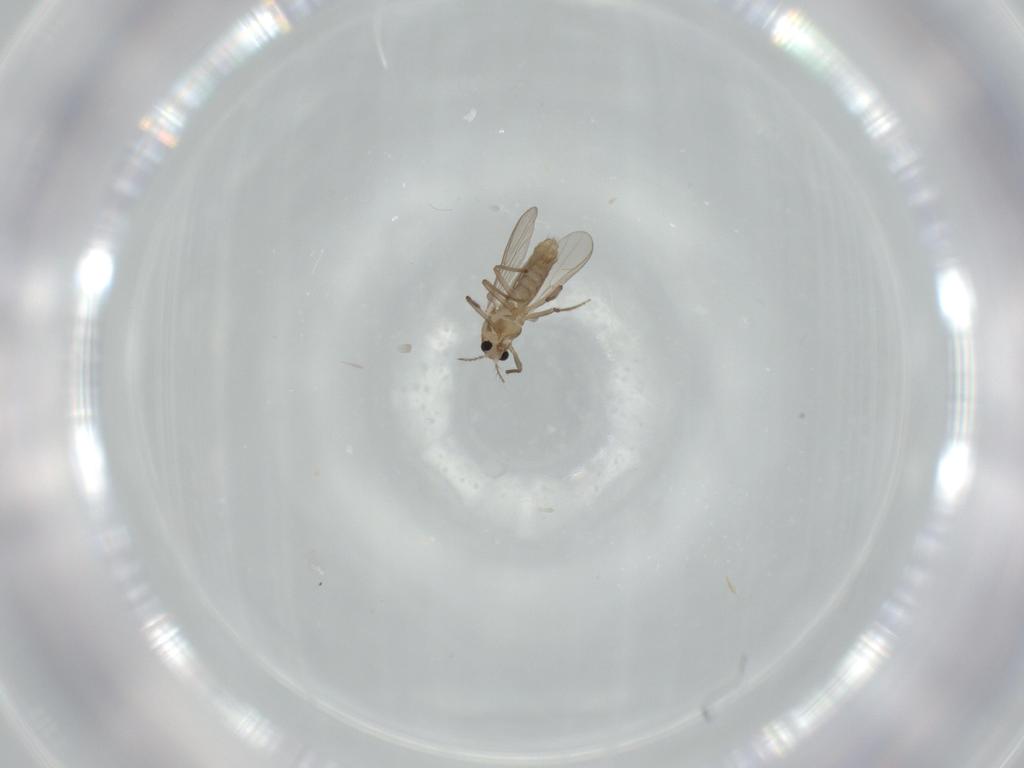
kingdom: Animalia
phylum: Arthropoda
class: Insecta
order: Diptera
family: Chironomidae
